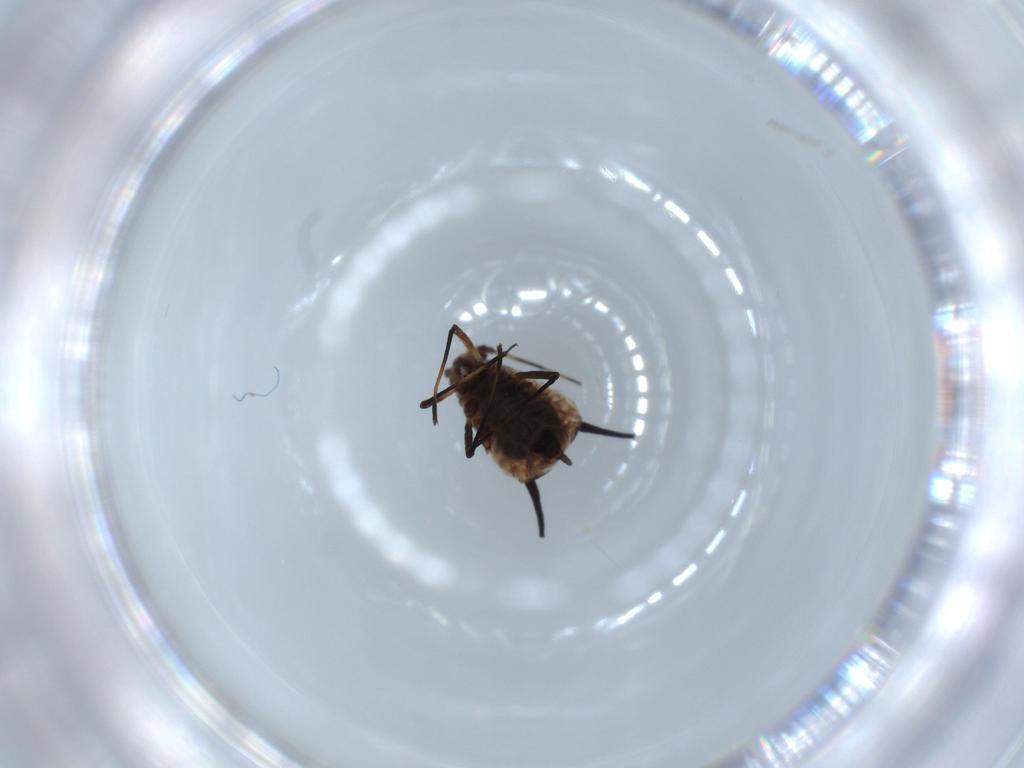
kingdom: Animalia
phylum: Arthropoda
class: Insecta
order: Hemiptera
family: Aphididae
